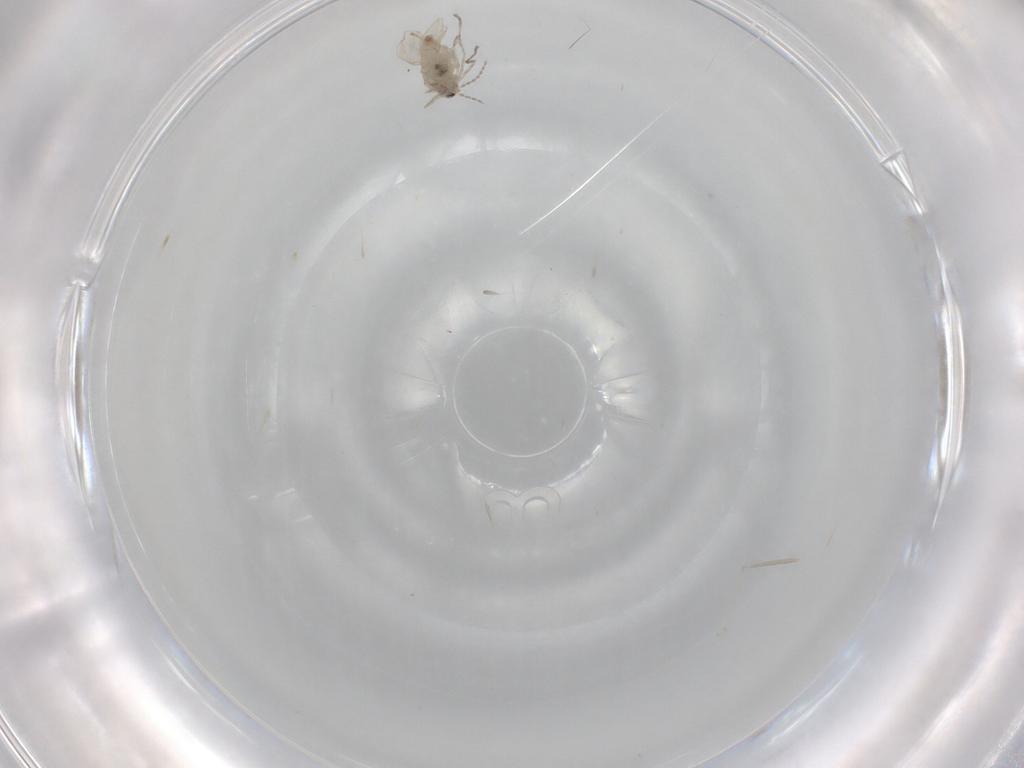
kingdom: Animalia
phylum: Arthropoda
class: Insecta
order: Diptera
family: Cecidomyiidae
